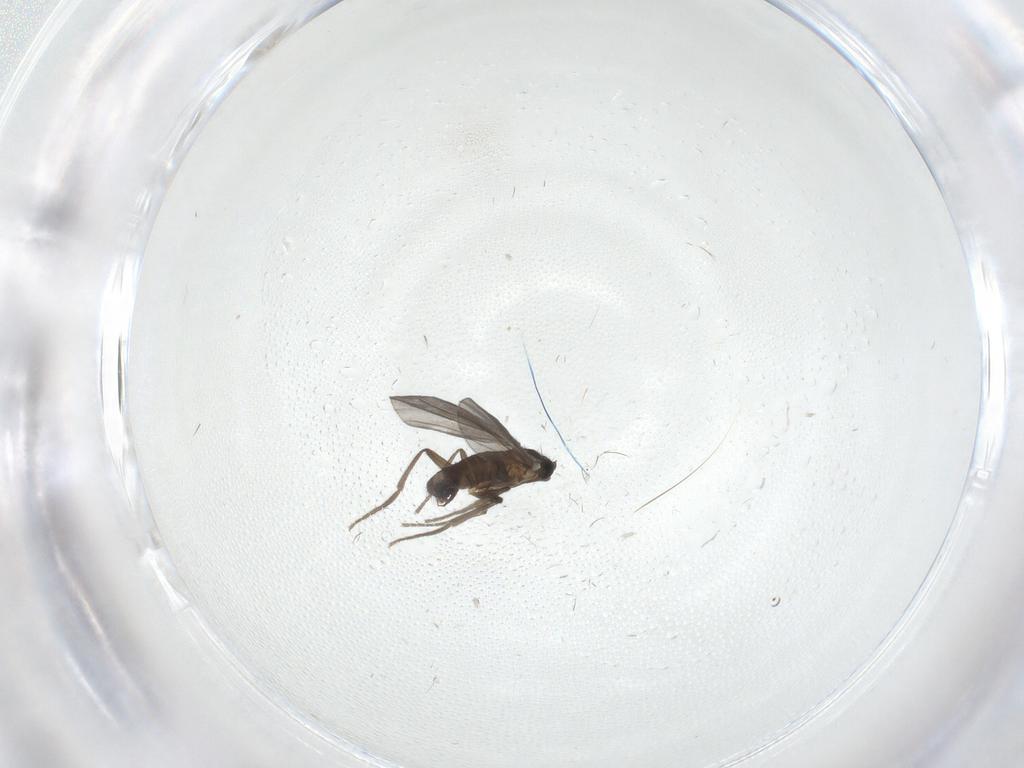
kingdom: Animalia
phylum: Arthropoda
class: Insecta
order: Diptera
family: Phoridae
